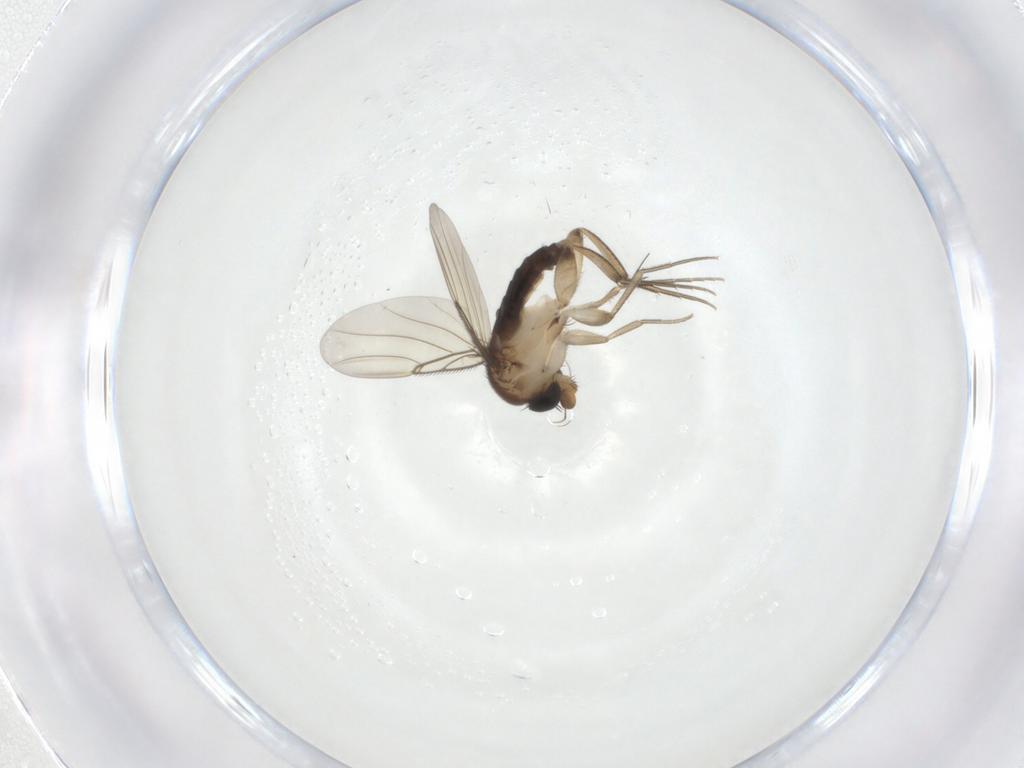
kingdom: Animalia
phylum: Arthropoda
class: Insecta
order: Diptera
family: Phoridae
